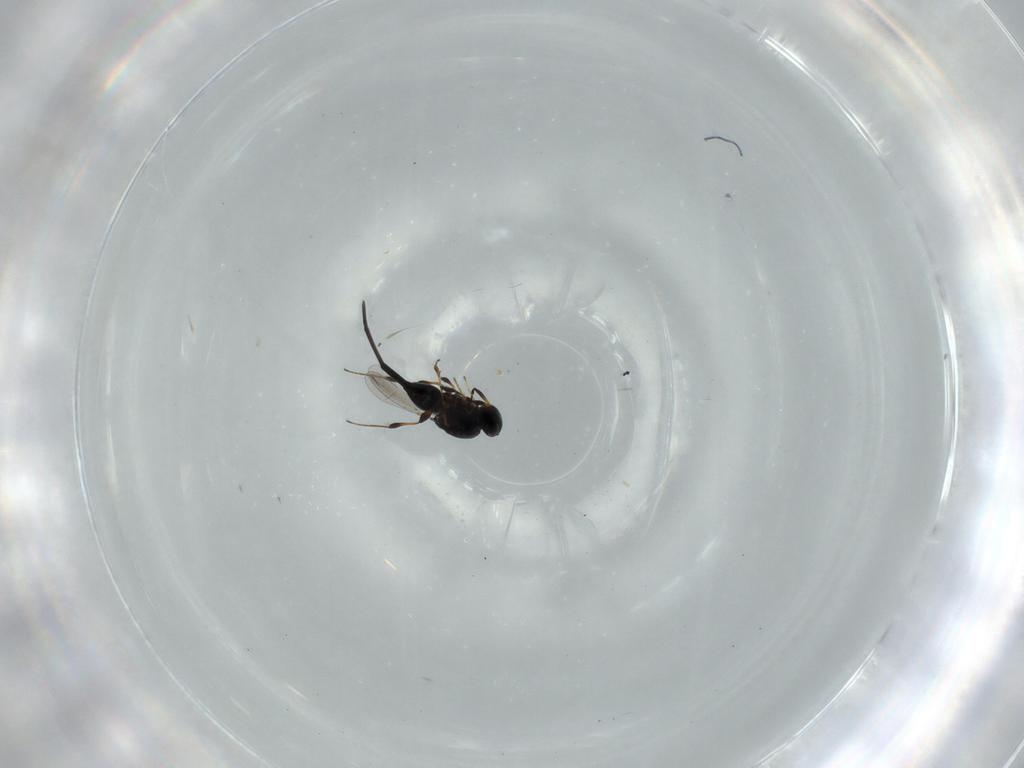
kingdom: Animalia
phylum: Arthropoda
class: Insecta
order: Hymenoptera
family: Platygastridae
